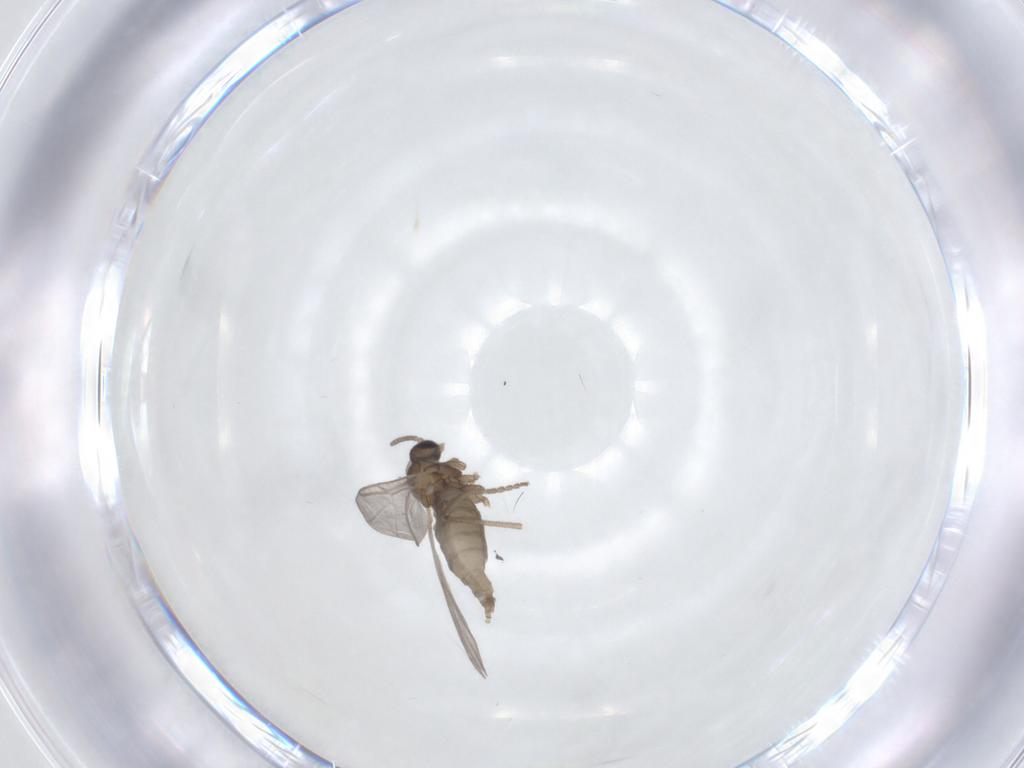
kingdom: Animalia
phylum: Arthropoda
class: Insecta
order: Diptera
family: Cecidomyiidae
